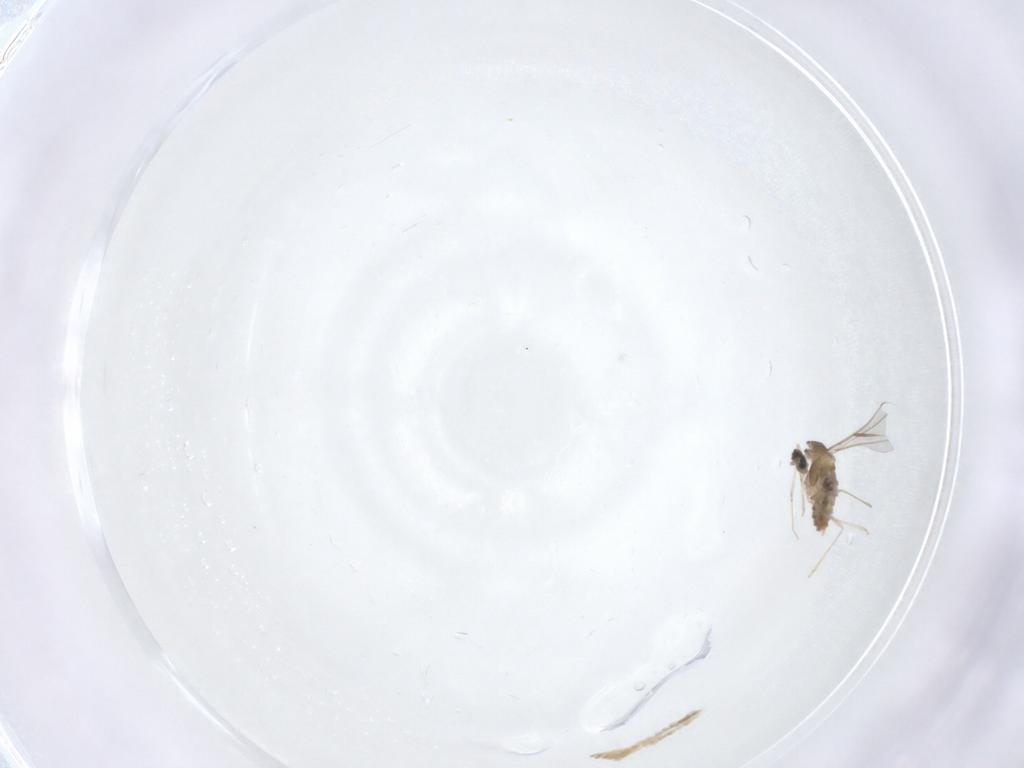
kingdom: Animalia
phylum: Arthropoda
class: Insecta
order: Diptera
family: Cecidomyiidae
